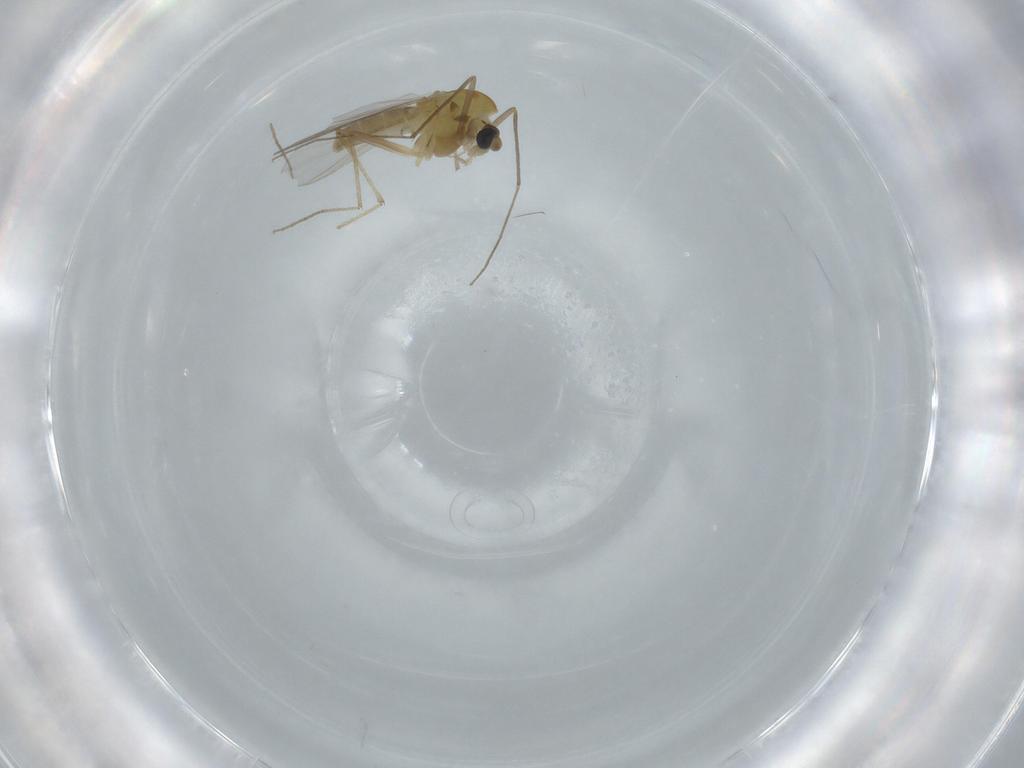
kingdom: Animalia
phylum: Arthropoda
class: Insecta
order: Diptera
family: Chironomidae
